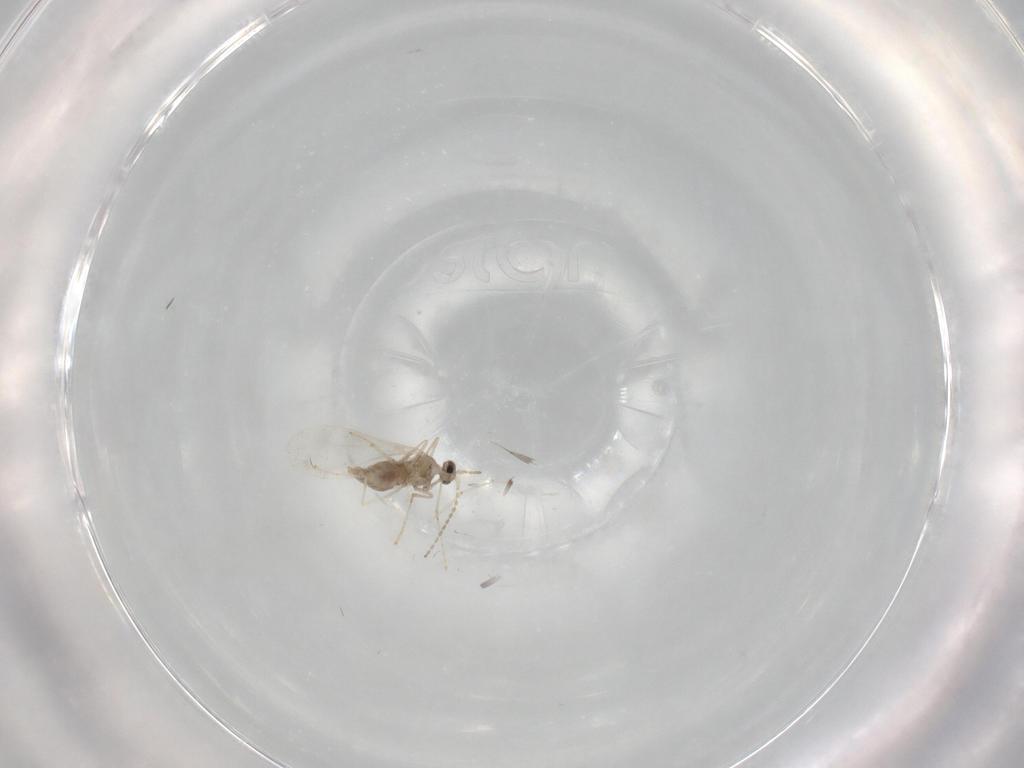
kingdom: Animalia
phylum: Arthropoda
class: Insecta
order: Diptera
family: Cecidomyiidae
